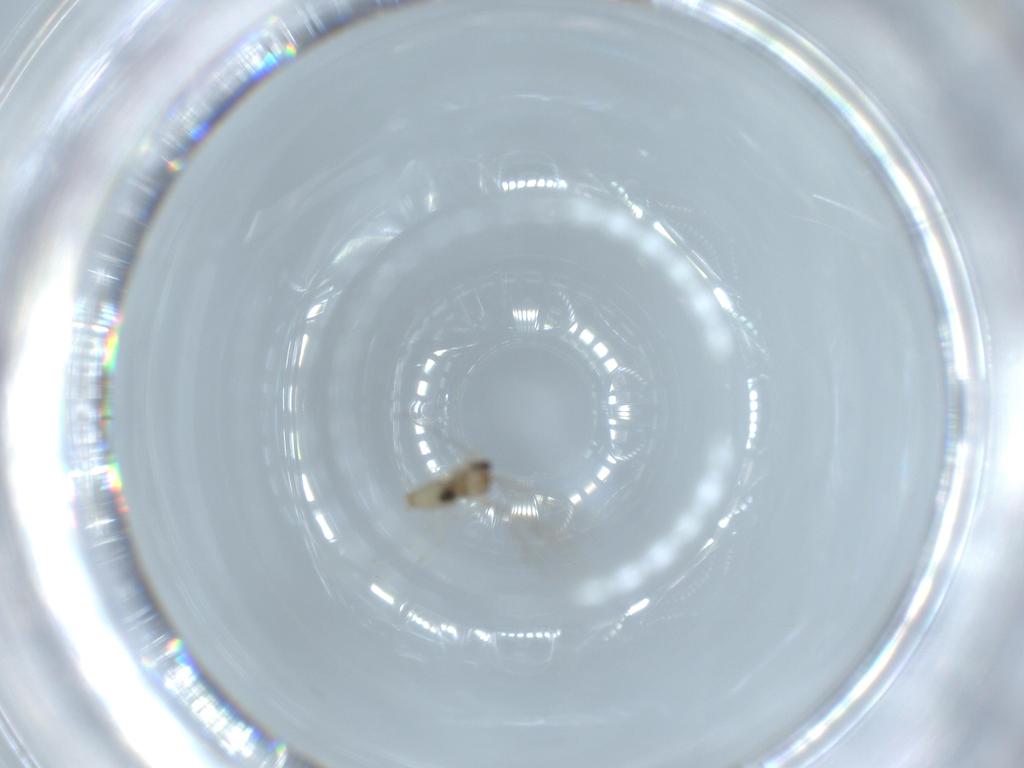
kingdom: Animalia
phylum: Arthropoda
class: Insecta
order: Diptera
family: Cecidomyiidae
